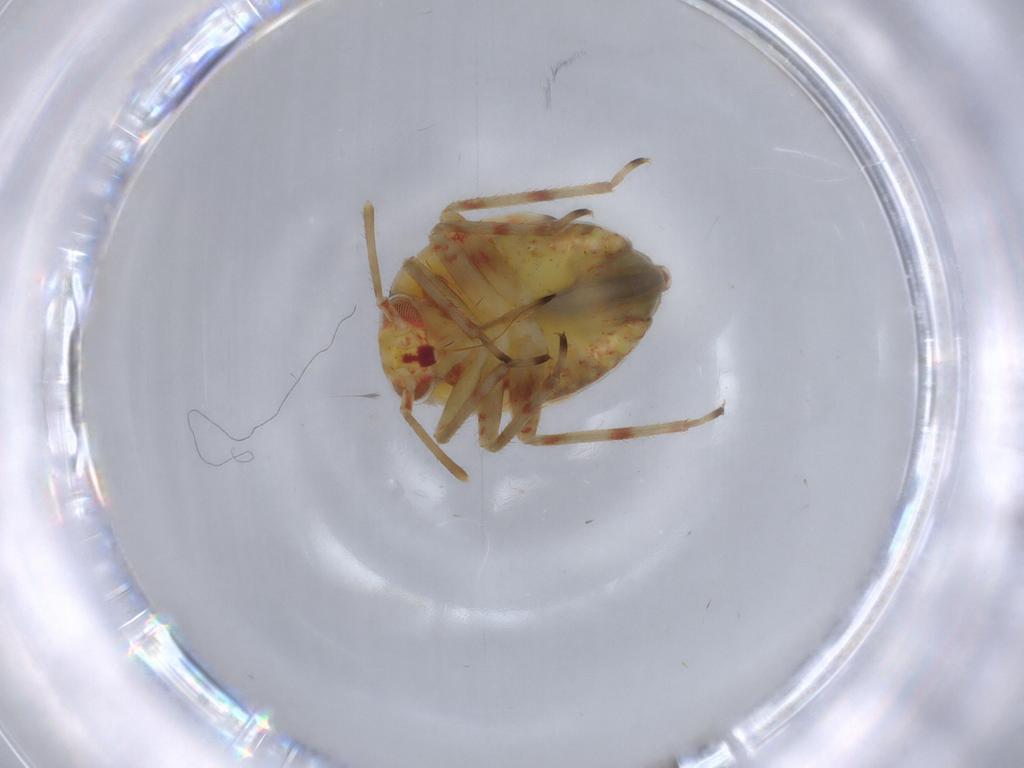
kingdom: Animalia
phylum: Arthropoda
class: Insecta
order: Hemiptera
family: Miridae
